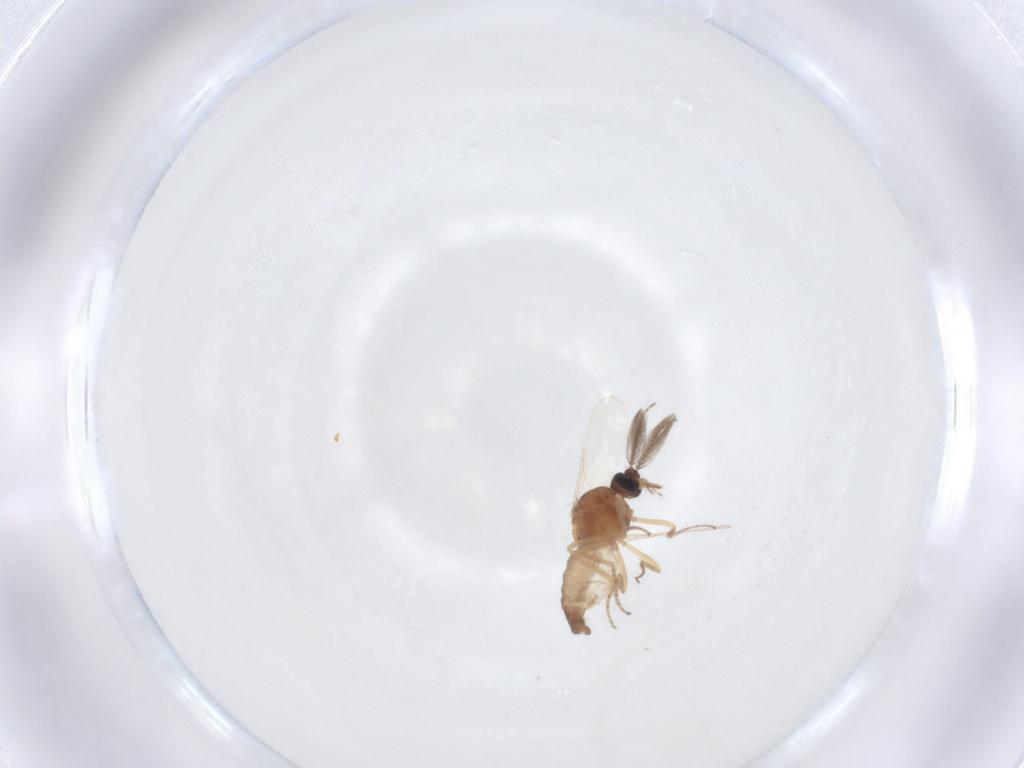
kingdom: Animalia
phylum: Arthropoda
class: Insecta
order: Diptera
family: Ceratopogonidae
